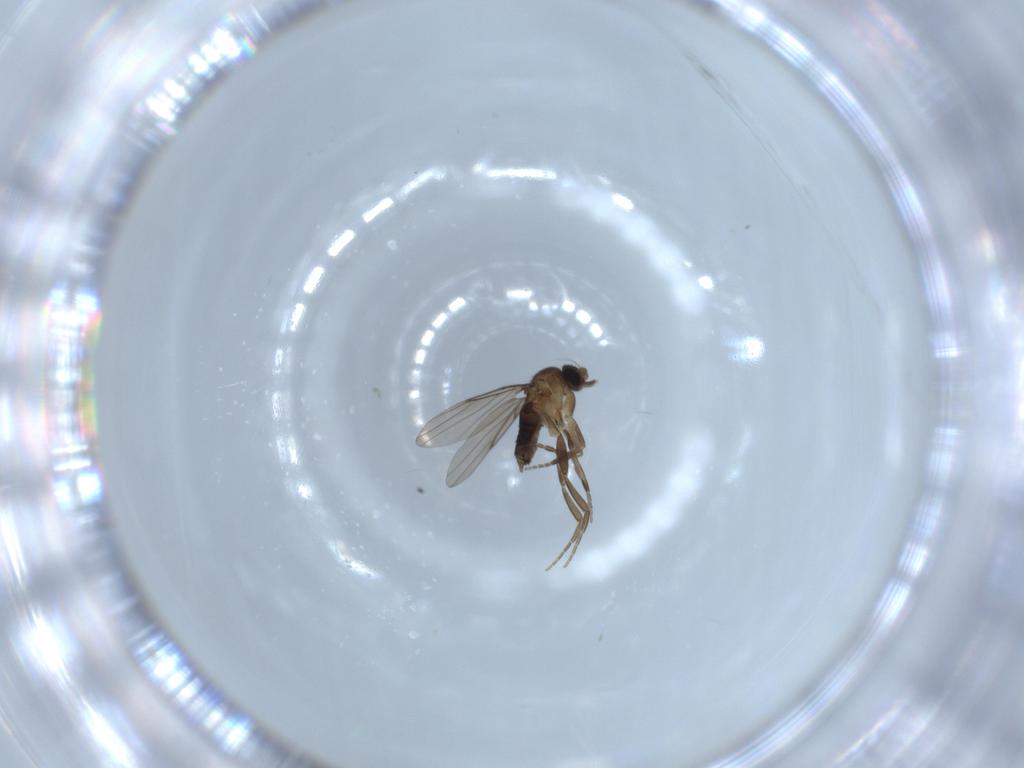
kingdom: Animalia
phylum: Arthropoda
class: Insecta
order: Diptera
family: Phoridae
